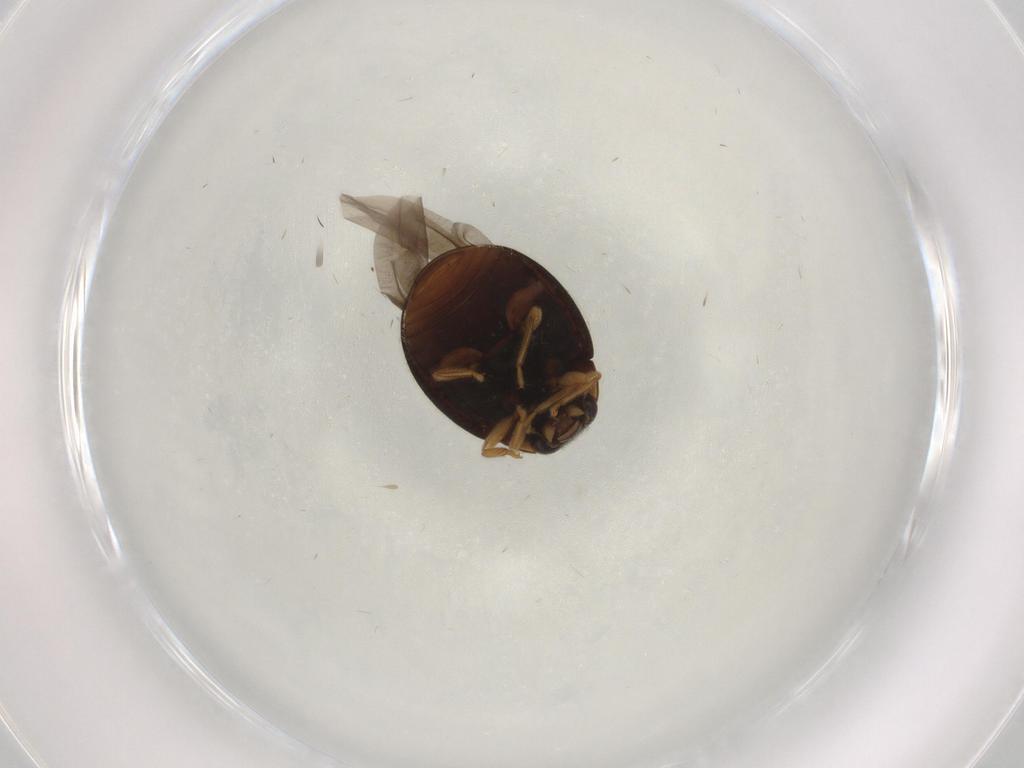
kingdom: Animalia
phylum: Arthropoda
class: Insecta
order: Coleoptera
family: Coccinellidae
